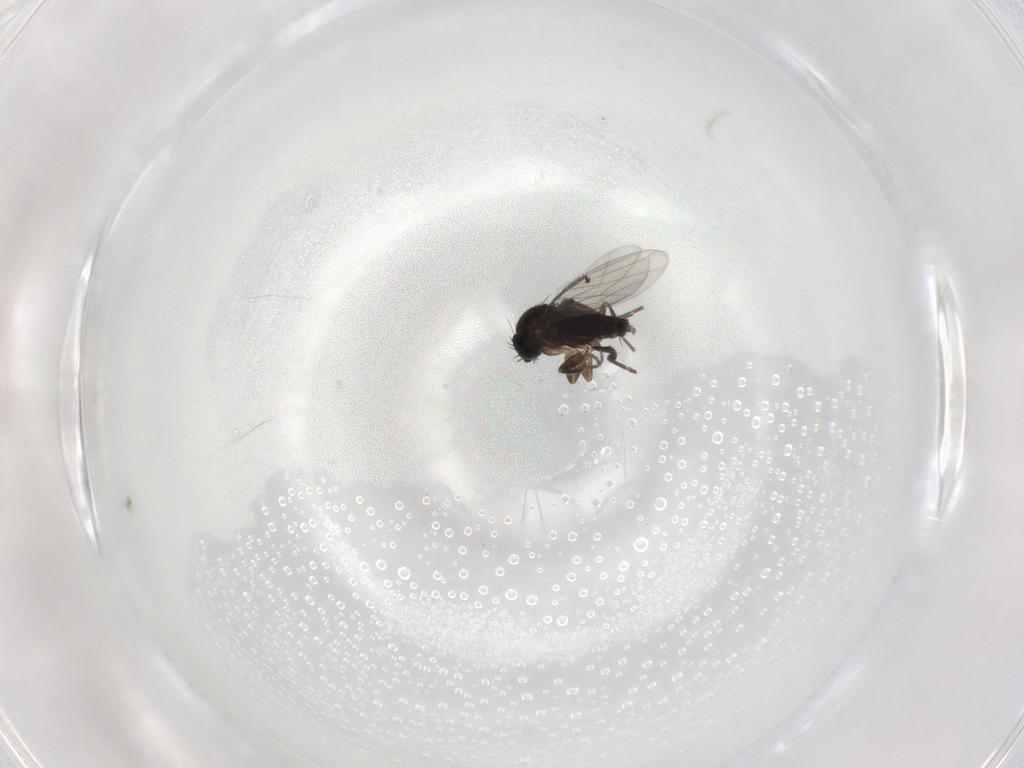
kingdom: Animalia
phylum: Arthropoda
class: Insecta
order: Diptera
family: Phoridae
